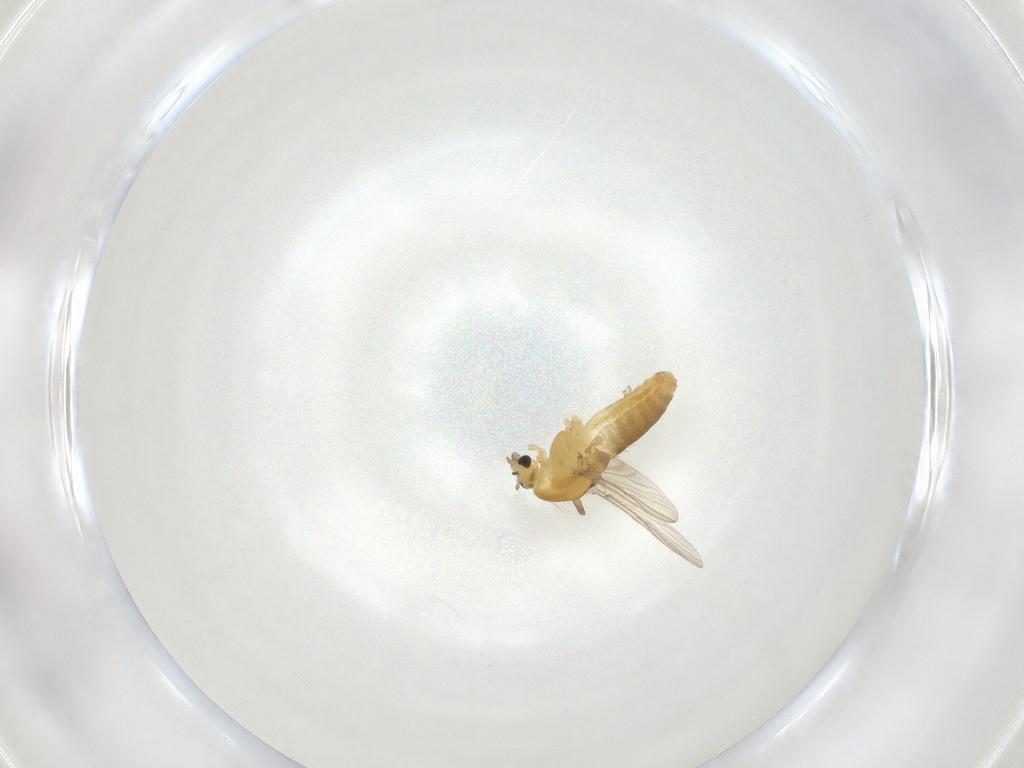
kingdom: Animalia
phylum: Arthropoda
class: Insecta
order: Diptera
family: Chironomidae
